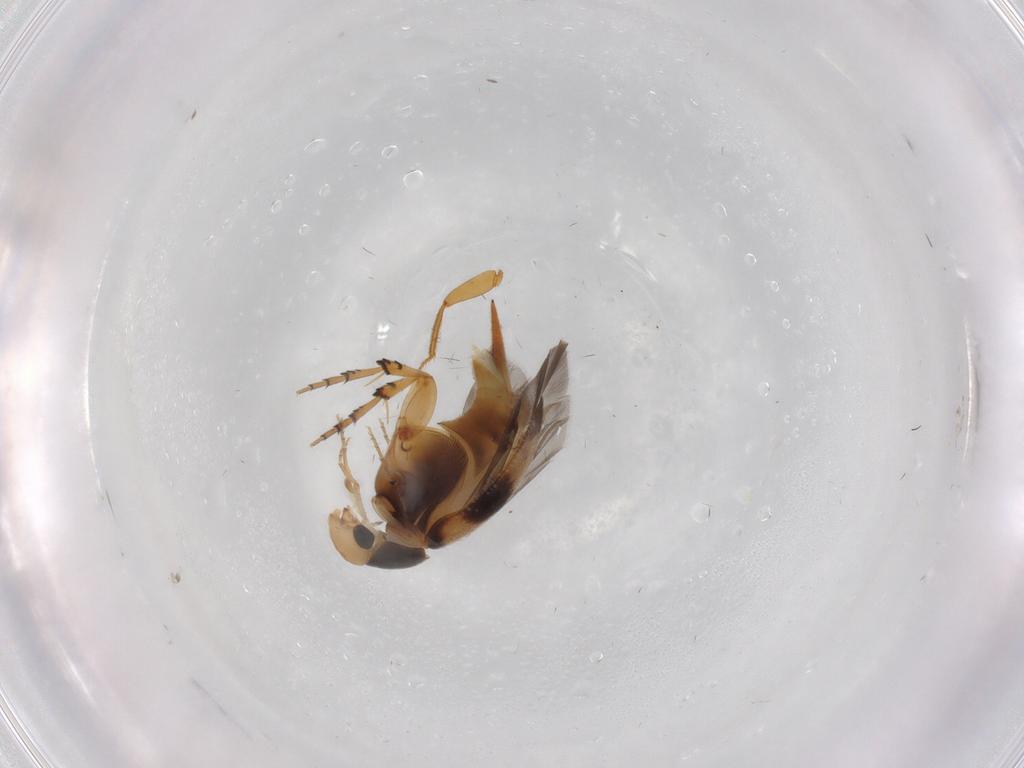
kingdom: Animalia
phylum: Arthropoda
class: Insecta
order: Coleoptera
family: Mordellidae
